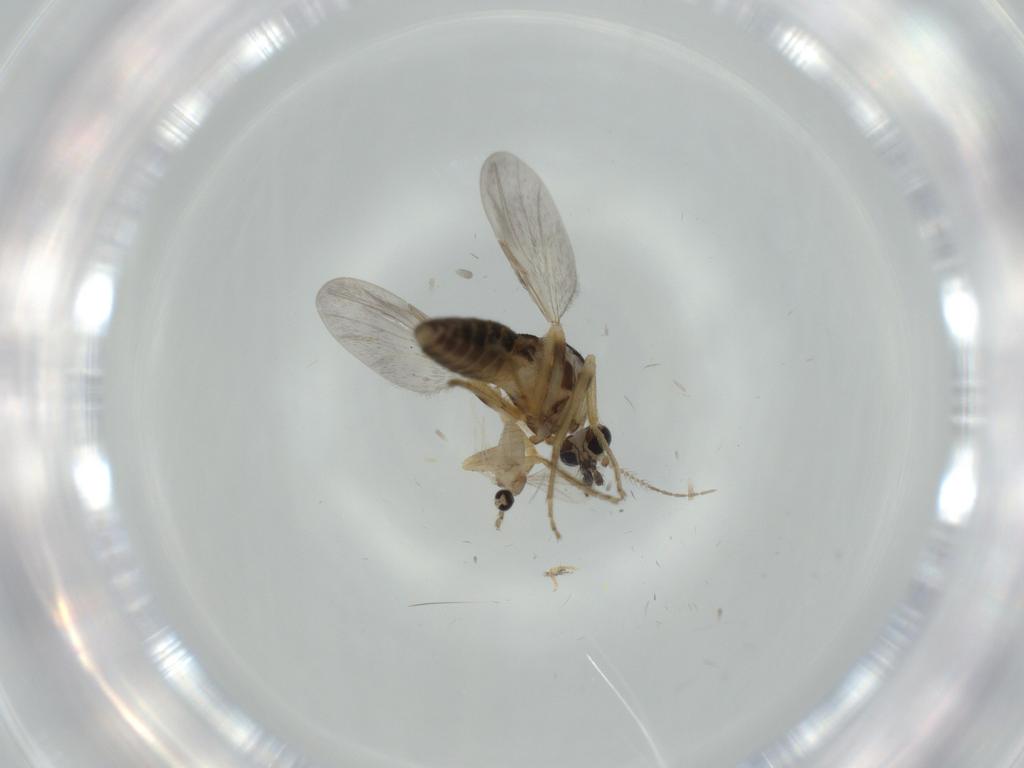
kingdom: Animalia
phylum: Arthropoda
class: Insecta
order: Diptera
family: Ceratopogonidae
